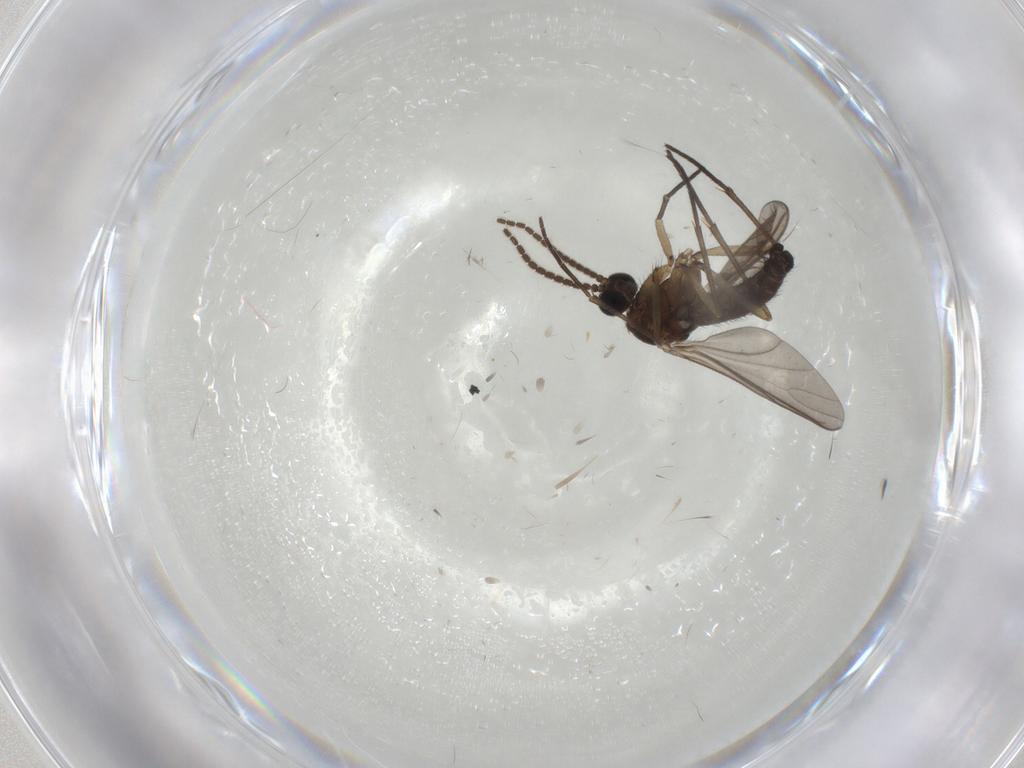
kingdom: Animalia
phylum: Arthropoda
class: Insecta
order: Diptera
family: Sciaridae
